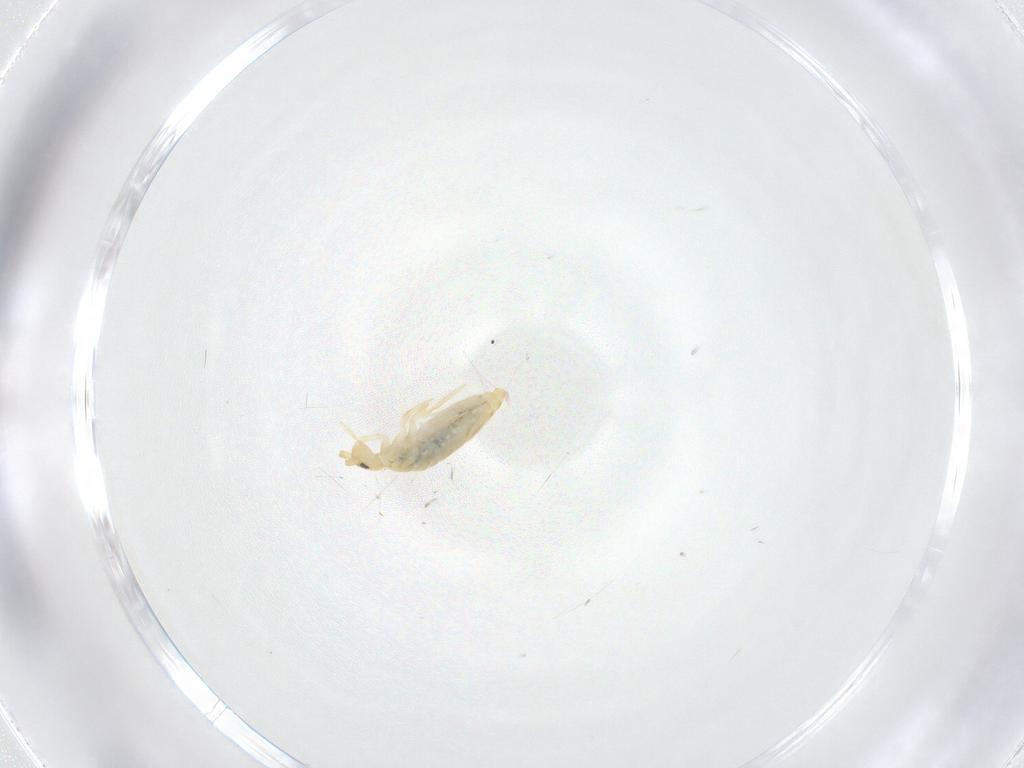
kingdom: Animalia
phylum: Arthropoda
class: Collembola
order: Entomobryomorpha
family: Entomobryidae
